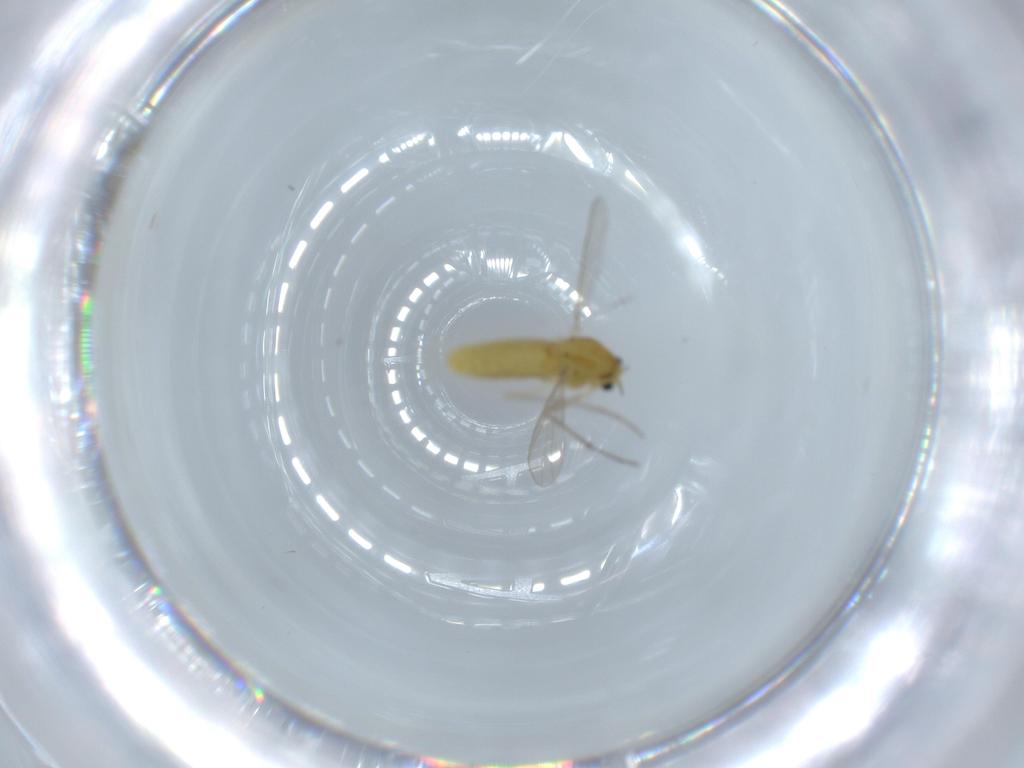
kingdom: Animalia
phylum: Arthropoda
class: Insecta
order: Diptera
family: Chironomidae
